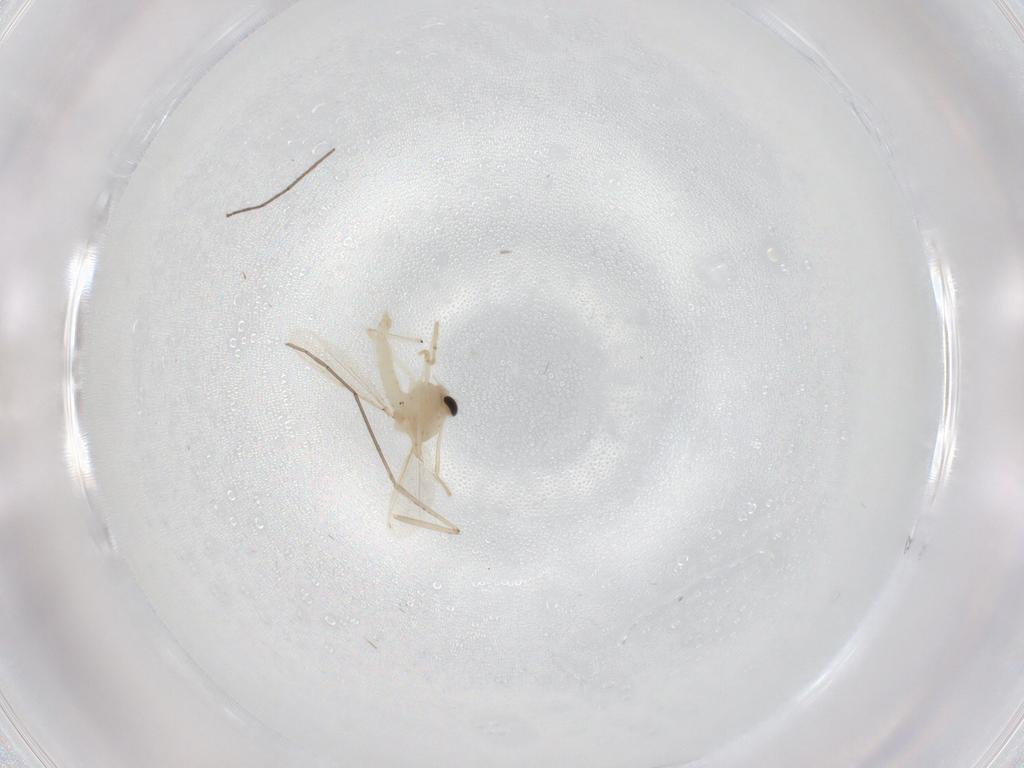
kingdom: Animalia
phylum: Arthropoda
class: Insecta
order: Diptera
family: Chironomidae
